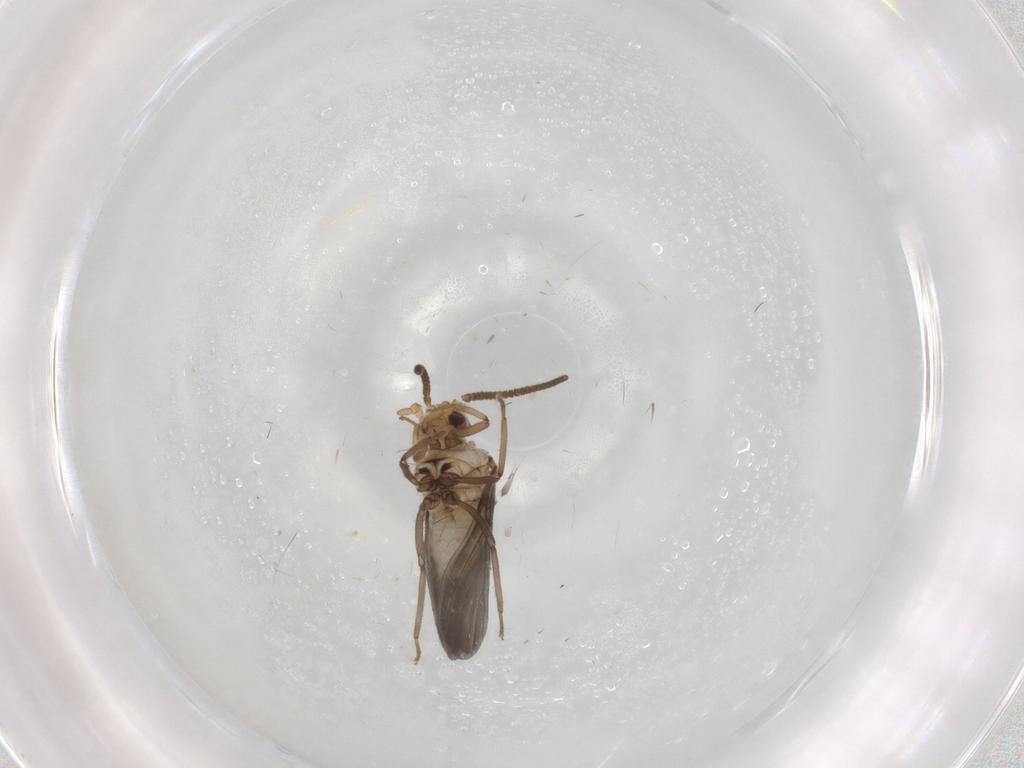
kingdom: Animalia
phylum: Arthropoda
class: Insecta
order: Neuroptera
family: Coniopterygidae
